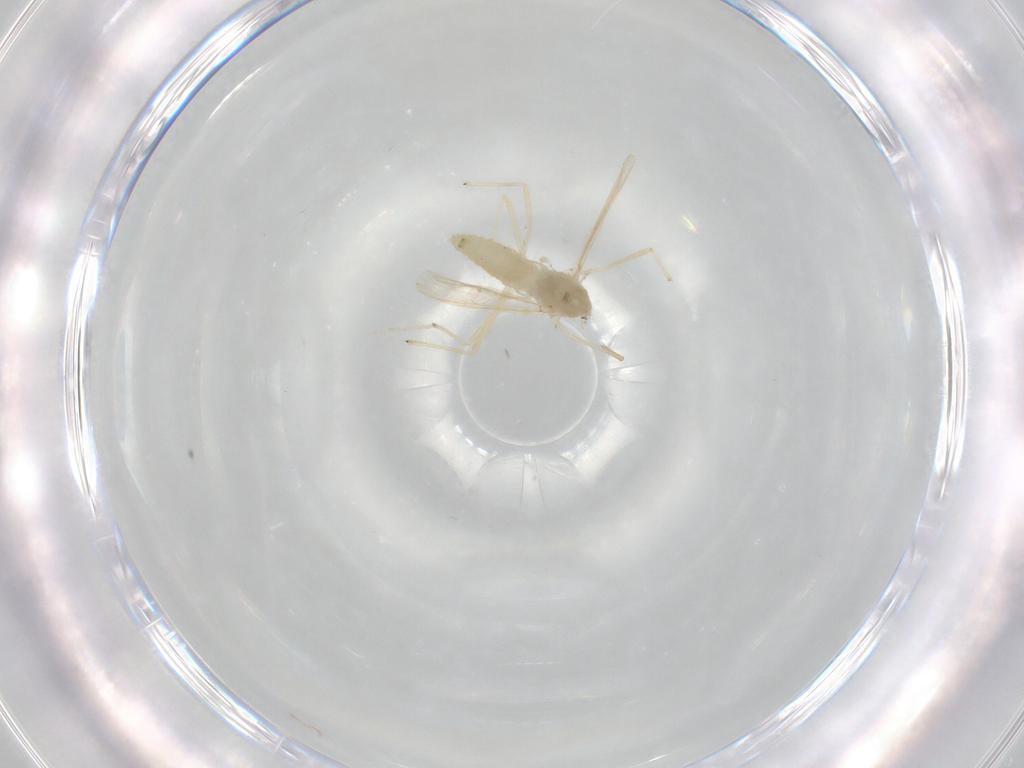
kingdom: Animalia
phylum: Arthropoda
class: Insecta
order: Diptera
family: Chironomidae
